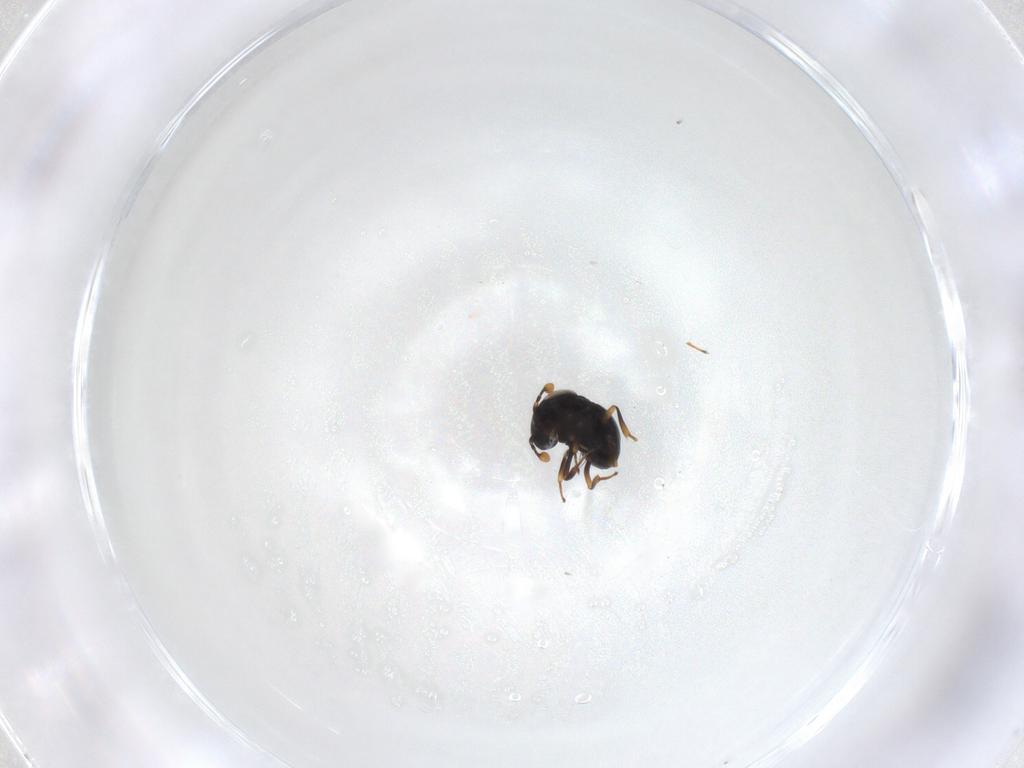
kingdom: Animalia
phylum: Arthropoda
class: Insecta
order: Hymenoptera
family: Scelionidae
